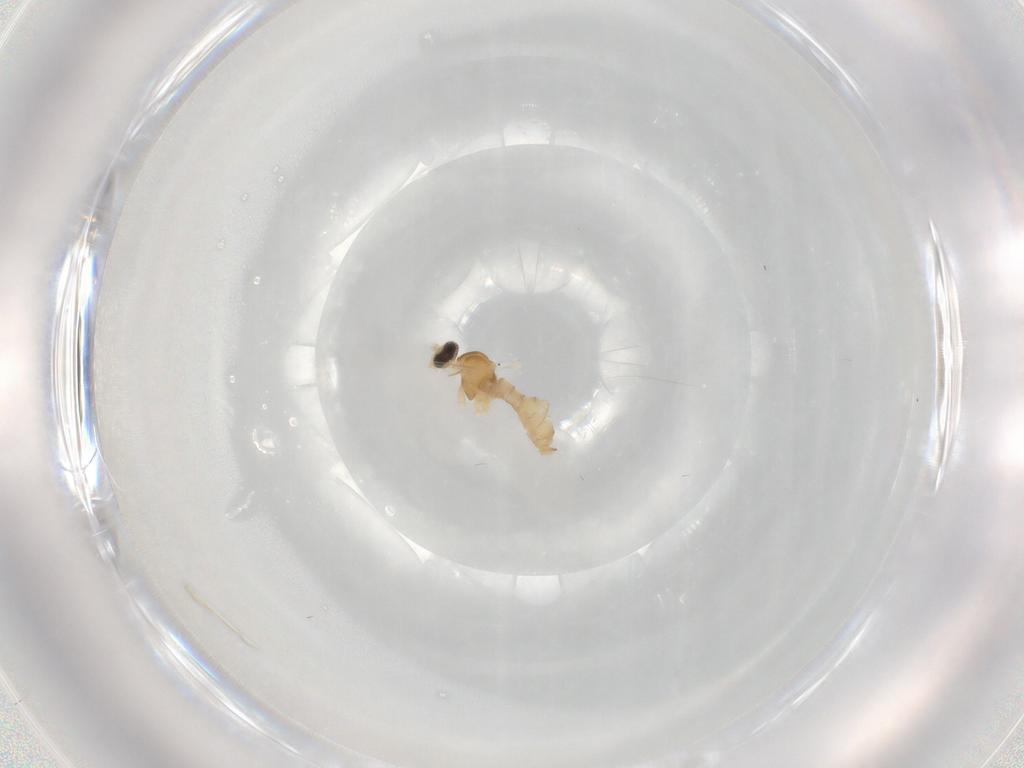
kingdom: Animalia
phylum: Arthropoda
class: Insecta
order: Diptera
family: Cecidomyiidae
